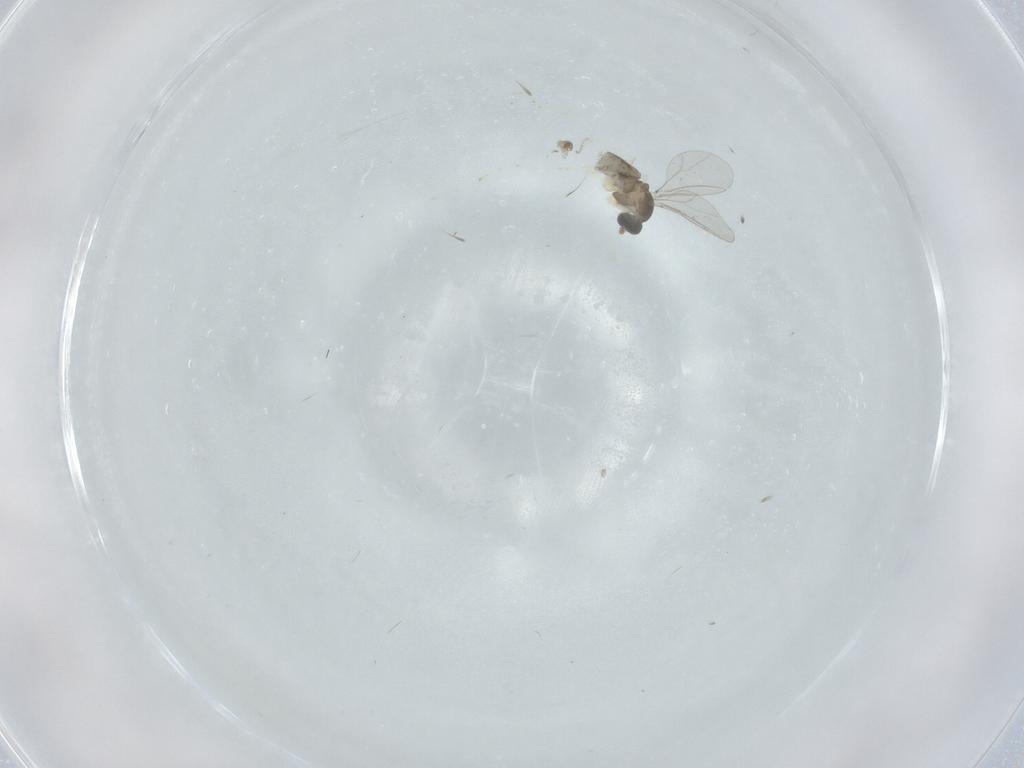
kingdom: Animalia
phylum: Arthropoda
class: Insecta
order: Diptera
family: Cecidomyiidae
